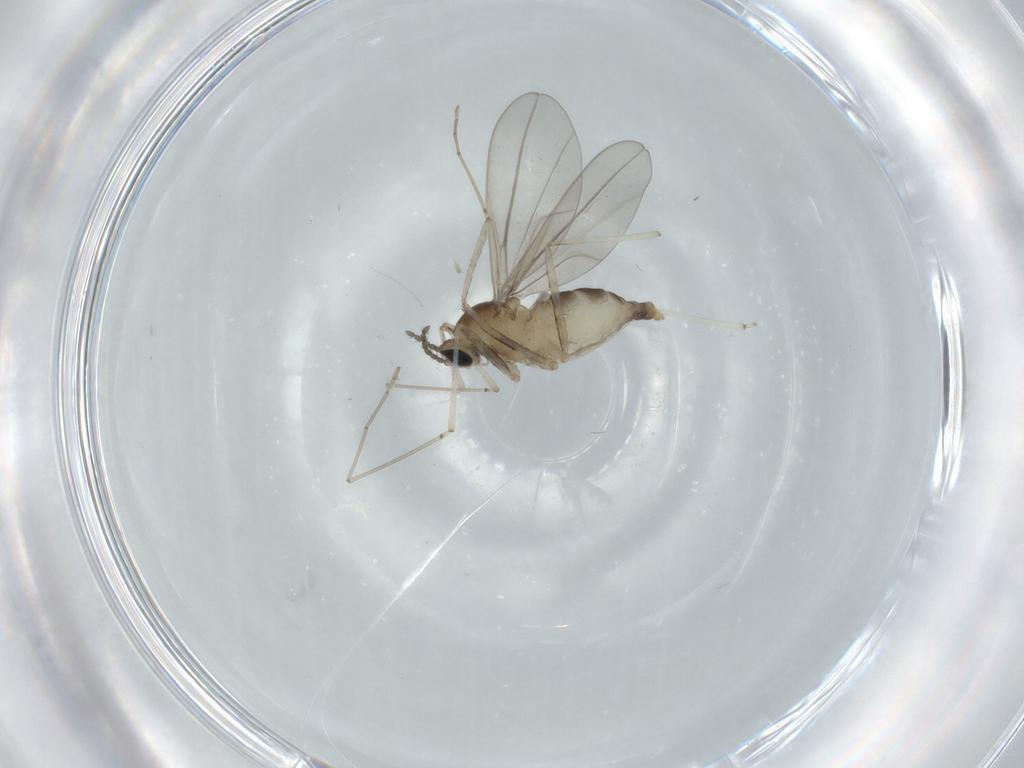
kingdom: Animalia
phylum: Arthropoda
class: Insecta
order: Diptera
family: Cecidomyiidae
